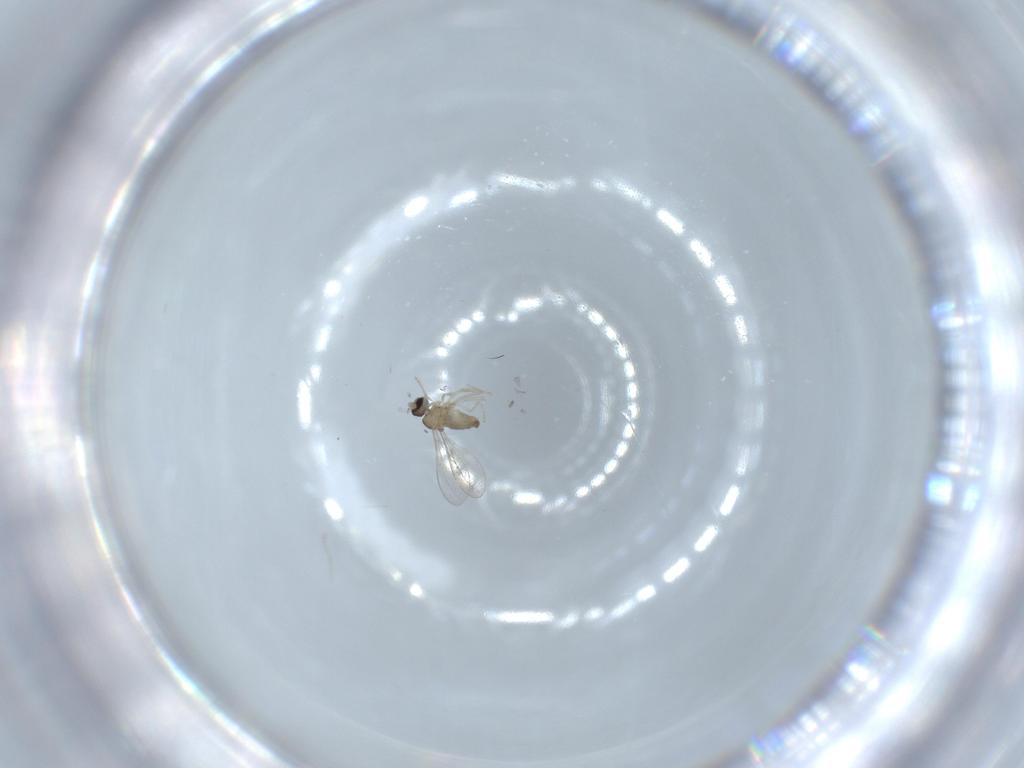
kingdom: Animalia
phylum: Arthropoda
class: Insecta
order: Diptera
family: Cecidomyiidae
